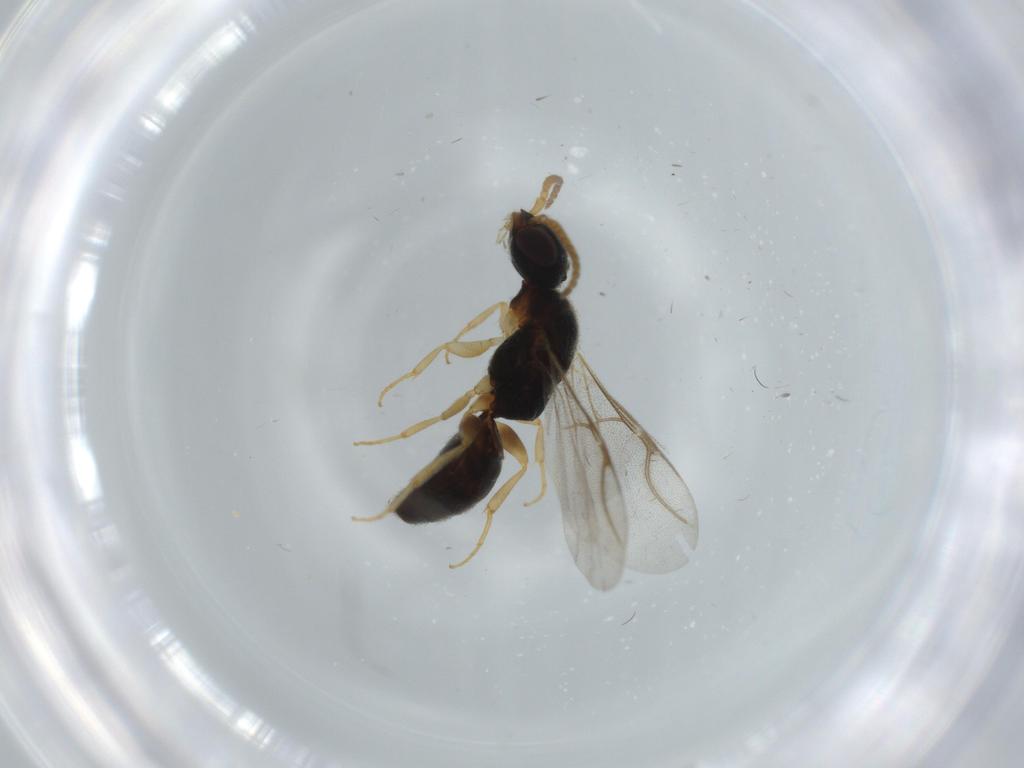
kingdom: Animalia
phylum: Arthropoda
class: Insecta
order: Hymenoptera
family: Bethylidae
